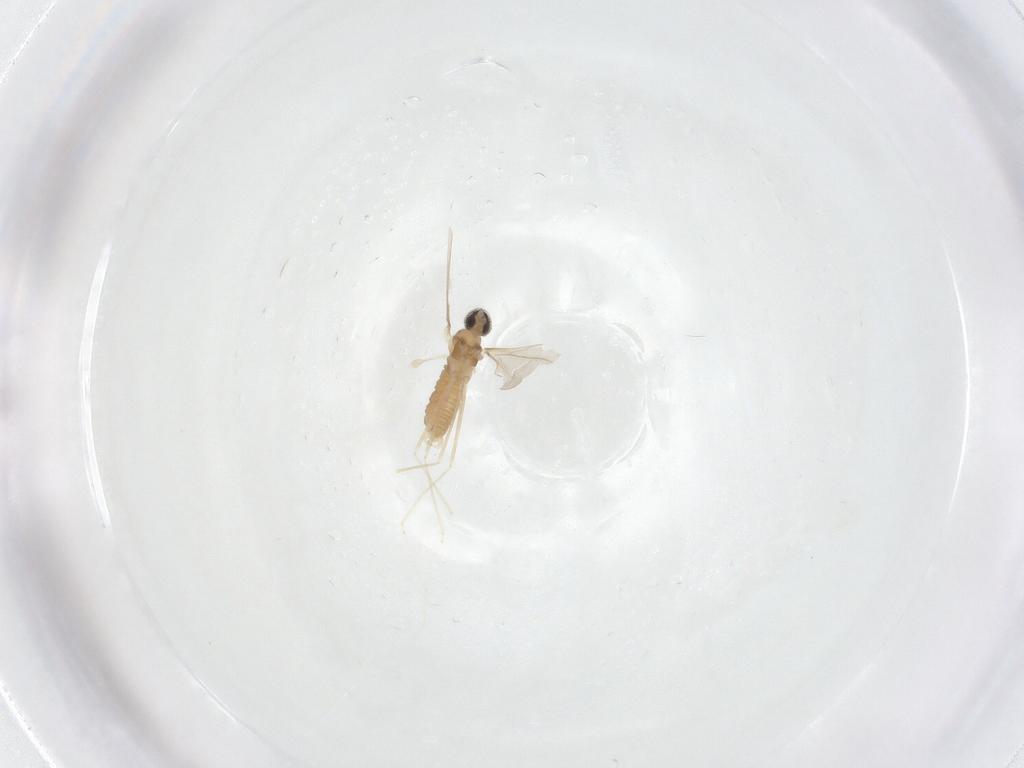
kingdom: Animalia
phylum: Arthropoda
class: Insecta
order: Diptera
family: Cecidomyiidae
